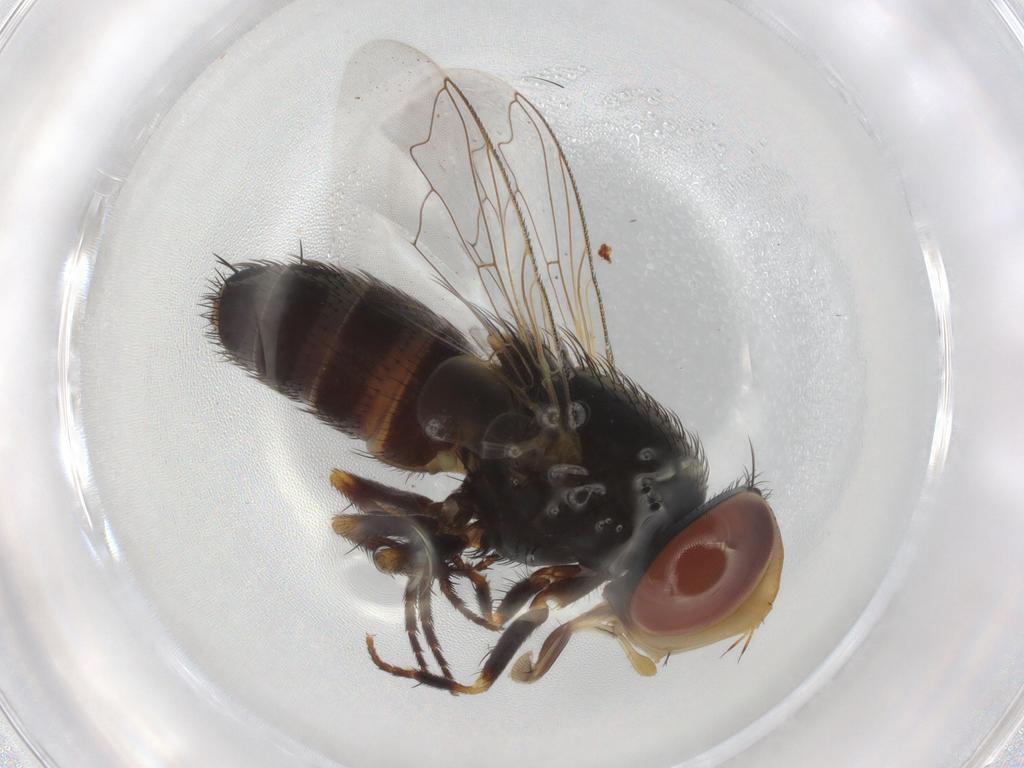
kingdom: Animalia
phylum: Arthropoda
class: Insecta
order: Diptera
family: Sarcophagidae
